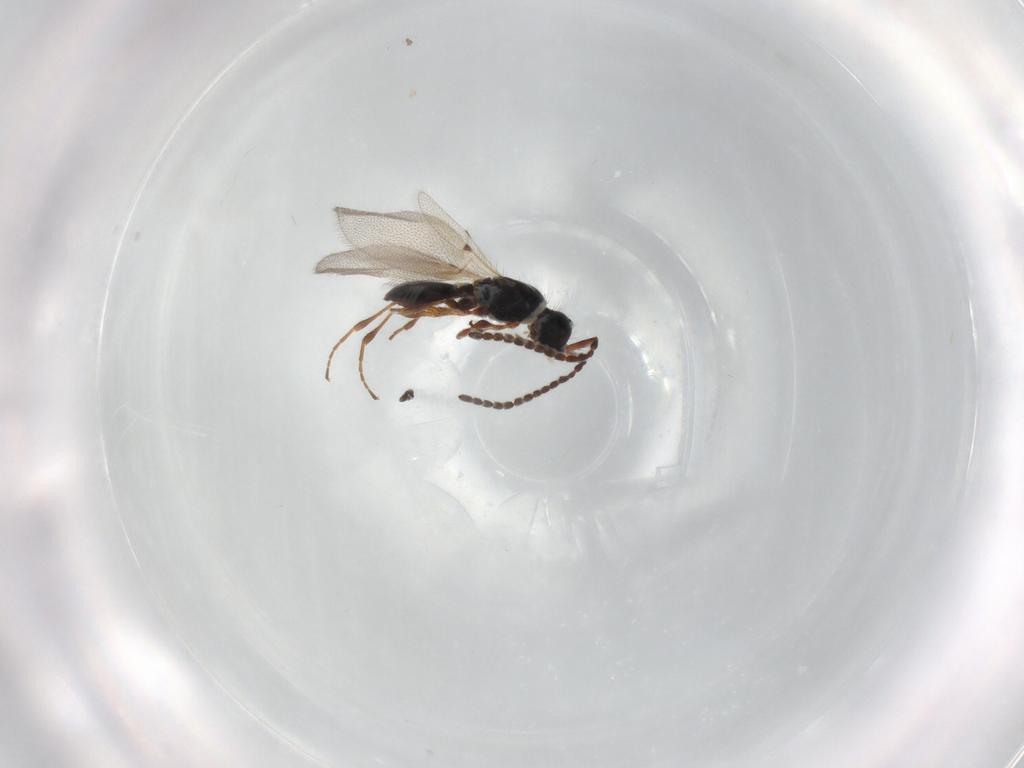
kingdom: Animalia
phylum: Arthropoda
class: Insecta
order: Hymenoptera
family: Diapriidae
